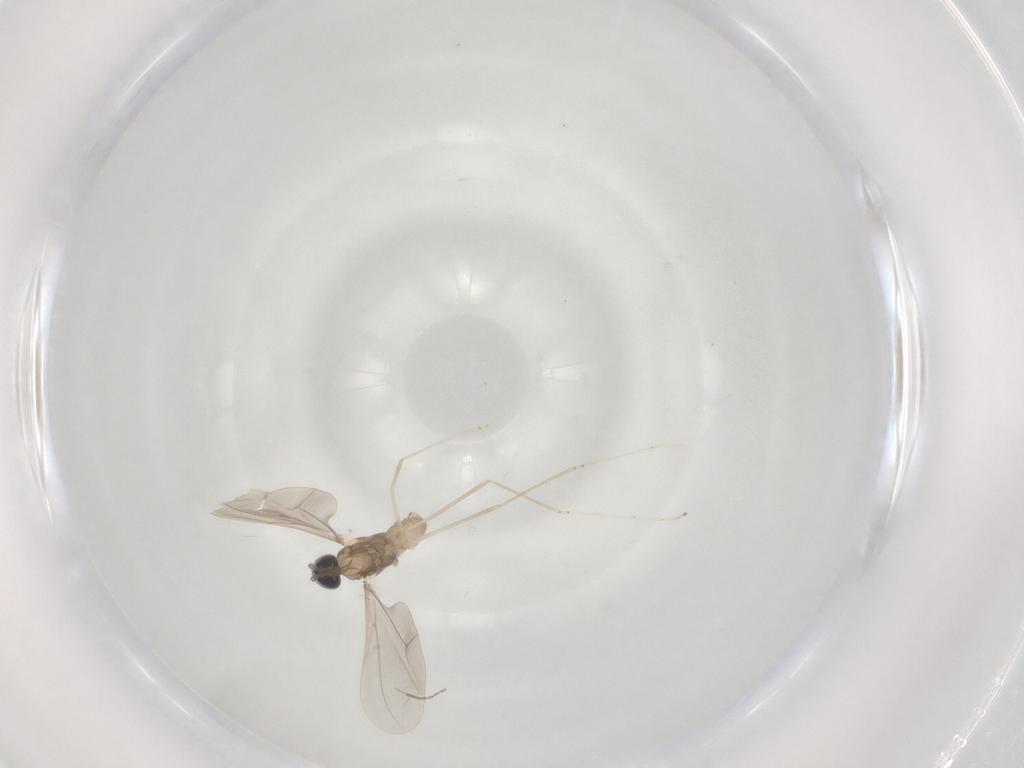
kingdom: Animalia
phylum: Arthropoda
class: Insecta
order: Diptera
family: Cecidomyiidae
